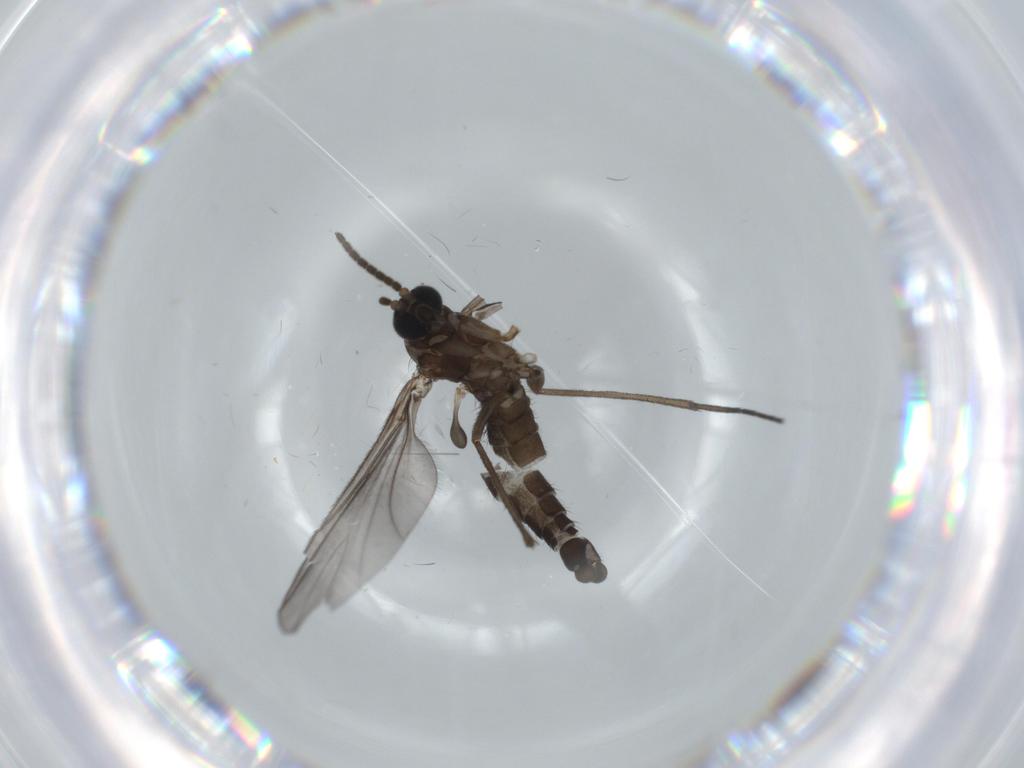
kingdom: Animalia
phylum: Arthropoda
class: Insecta
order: Diptera
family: Sciaridae
